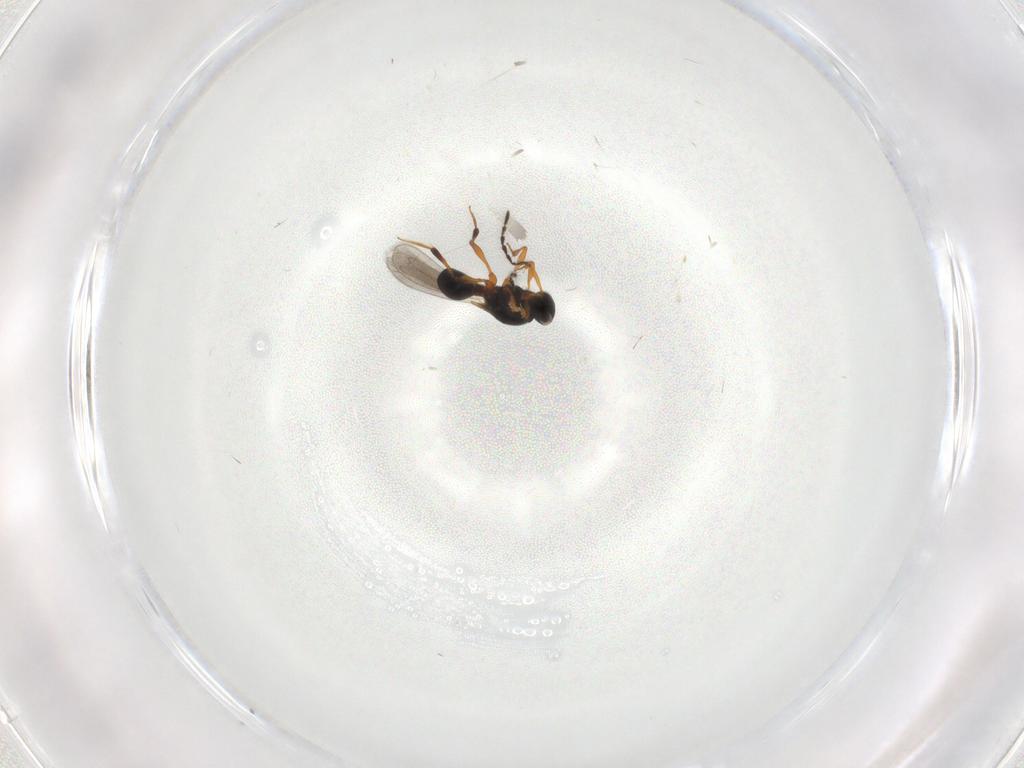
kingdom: Animalia
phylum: Arthropoda
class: Insecta
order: Hymenoptera
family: Platygastridae
